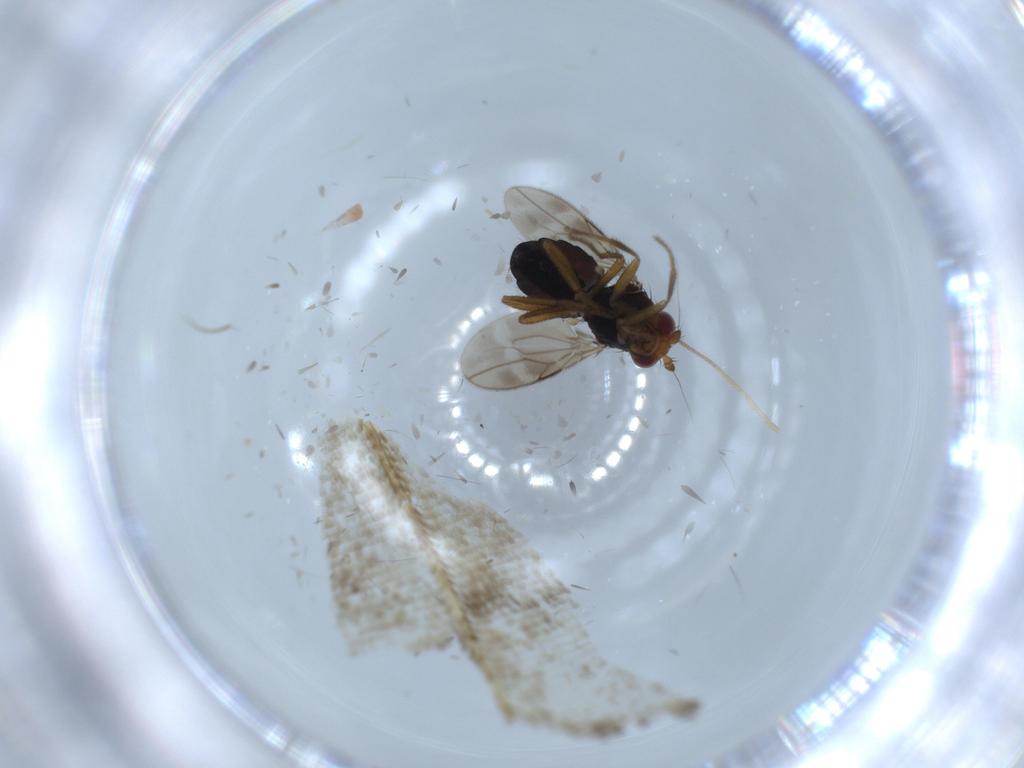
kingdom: Animalia
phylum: Arthropoda
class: Insecta
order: Diptera
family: Sphaeroceridae
